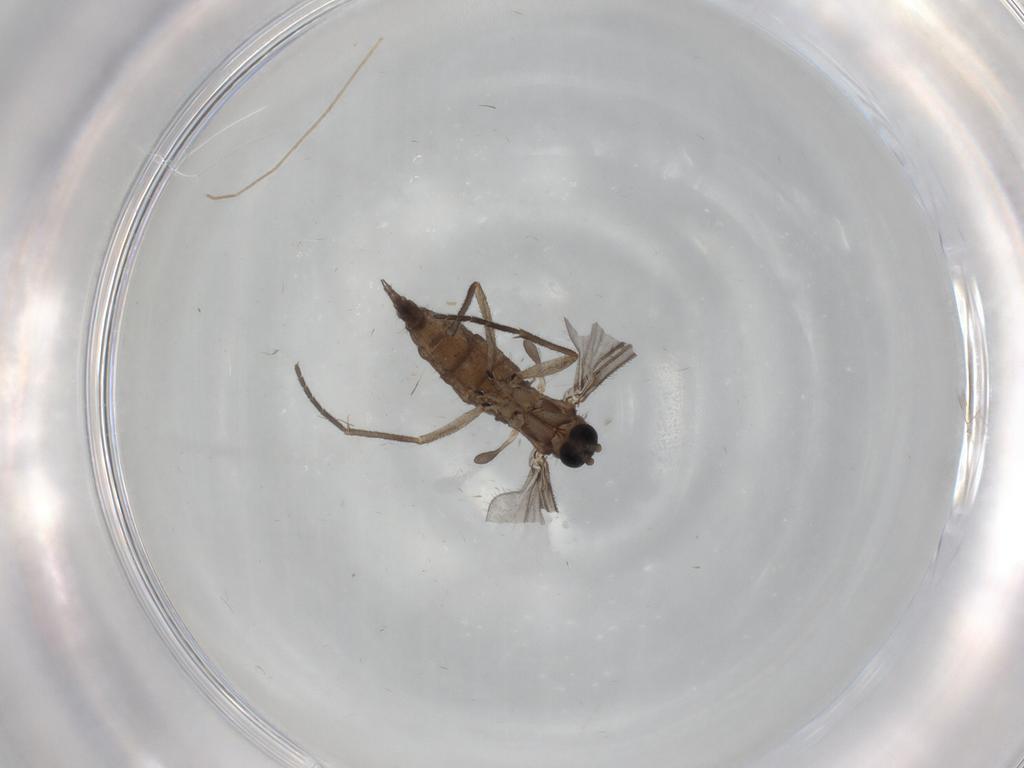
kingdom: Animalia
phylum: Arthropoda
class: Insecta
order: Diptera
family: Sciaridae
